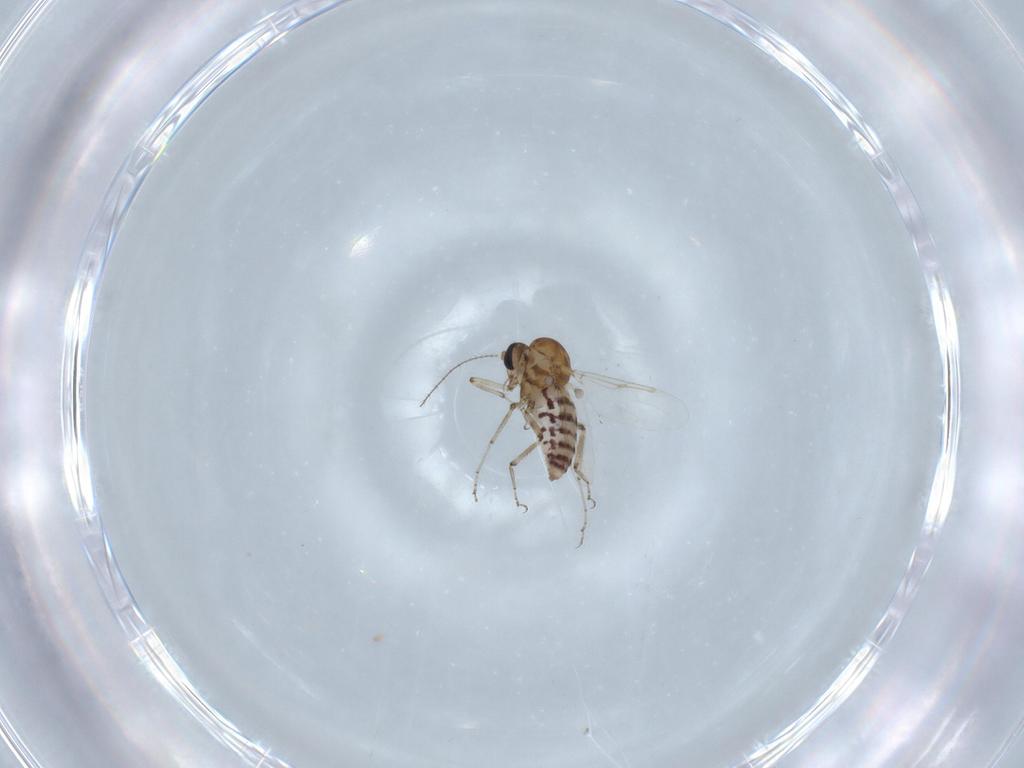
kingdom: Animalia
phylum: Arthropoda
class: Insecta
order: Diptera
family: Ceratopogonidae
